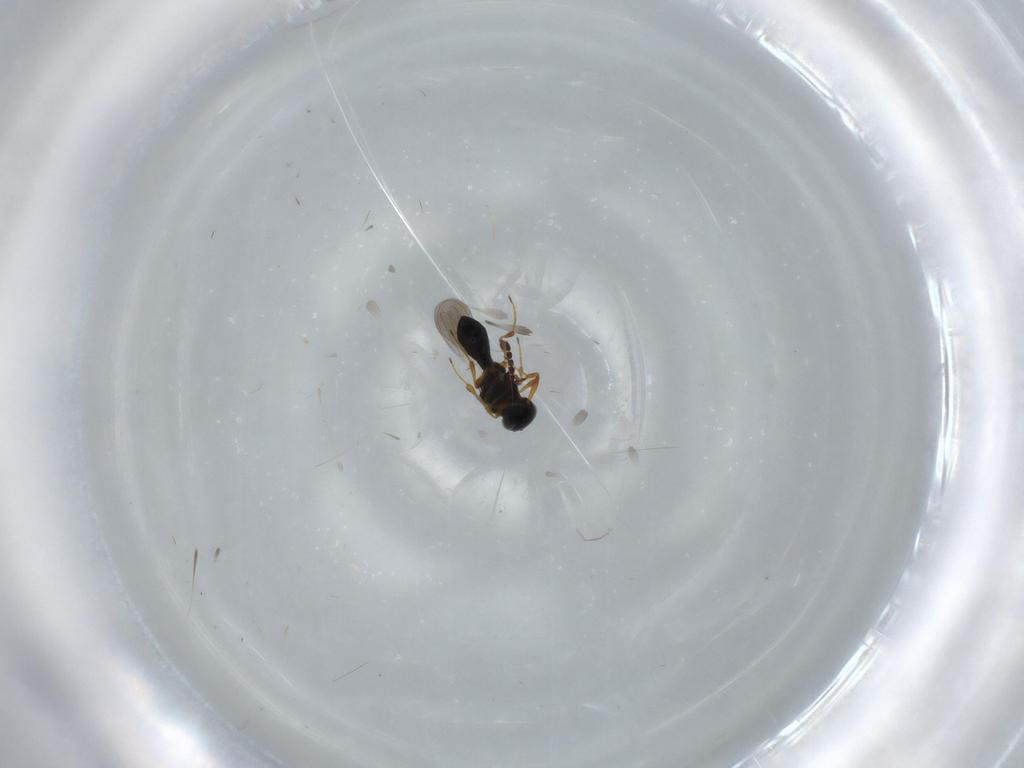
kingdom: Animalia
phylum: Arthropoda
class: Insecta
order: Hymenoptera
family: Platygastridae
